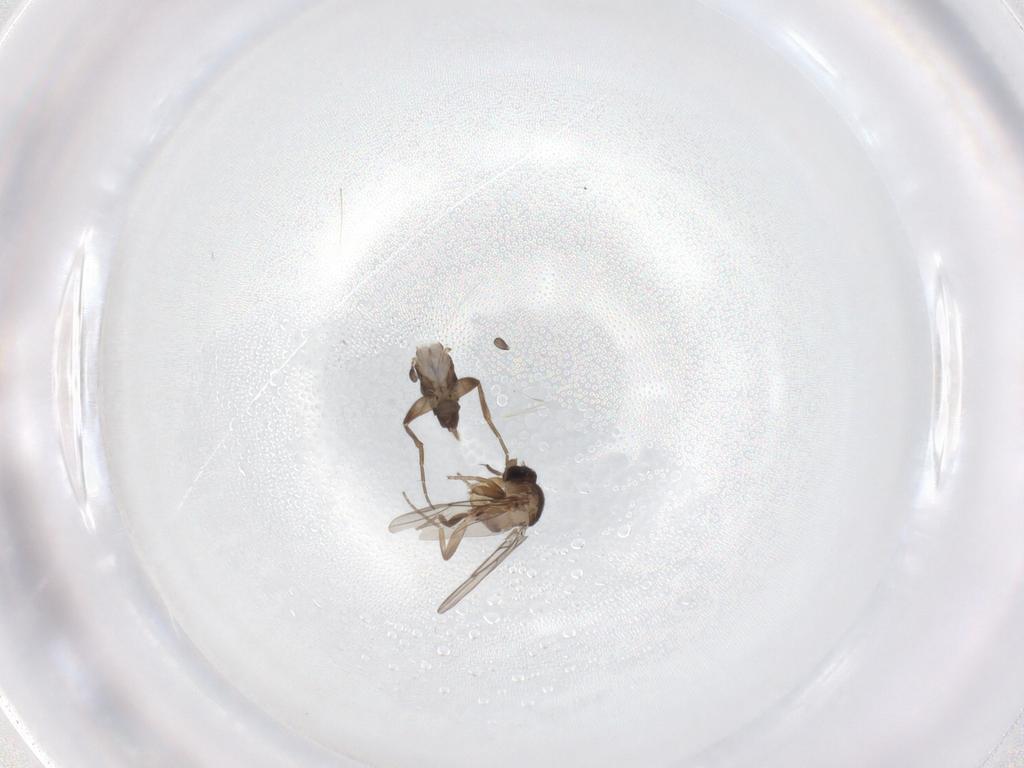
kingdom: Animalia
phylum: Arthropoda
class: Insecta
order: Diptera
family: Phoridae
